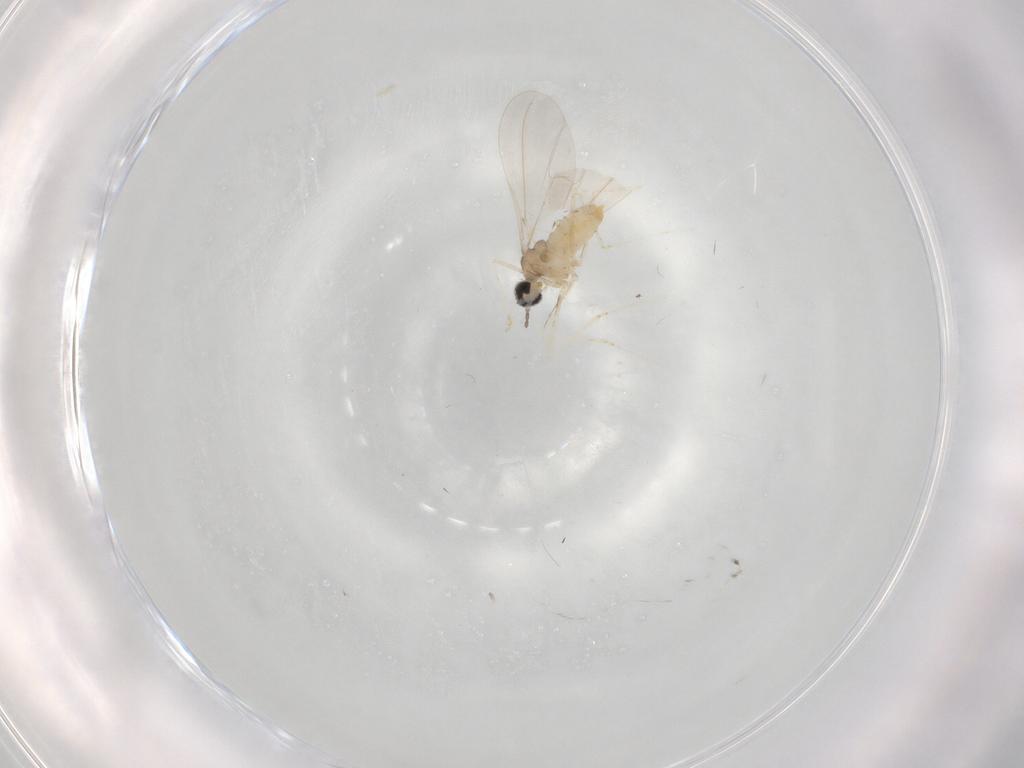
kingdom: Animalia
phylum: Arthropoda
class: Insecta
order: Diptera
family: Cecidomyiidae
